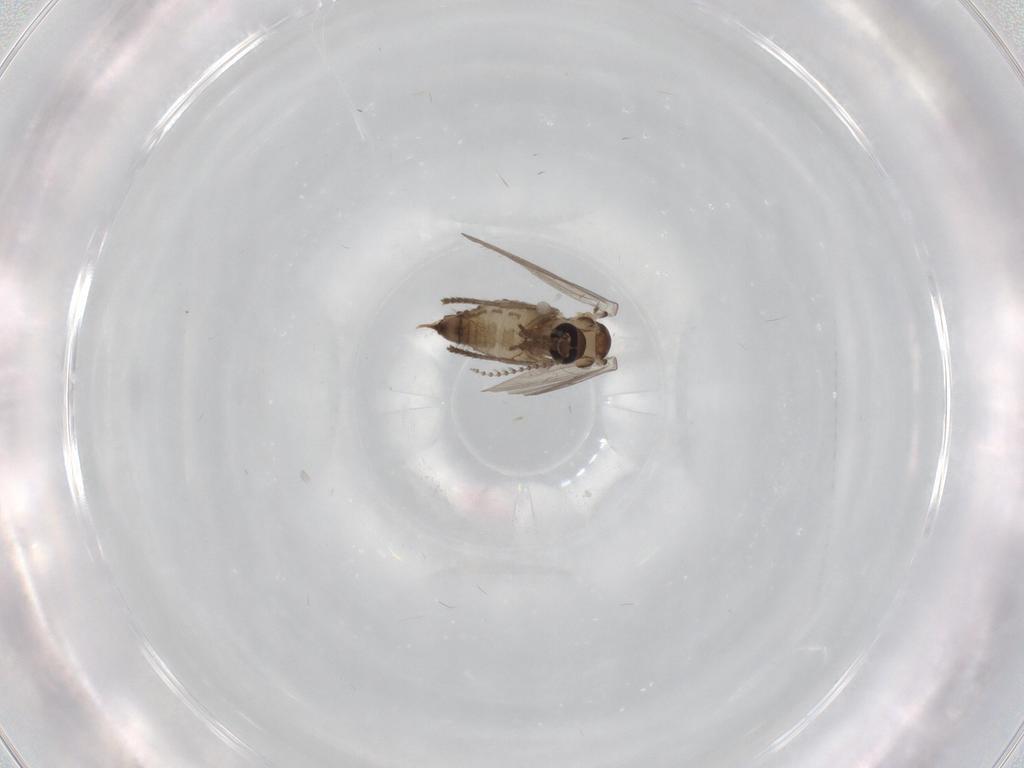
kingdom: Animalia
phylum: Arthropoda
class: Insecta
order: Diptera
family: Psychodidae
